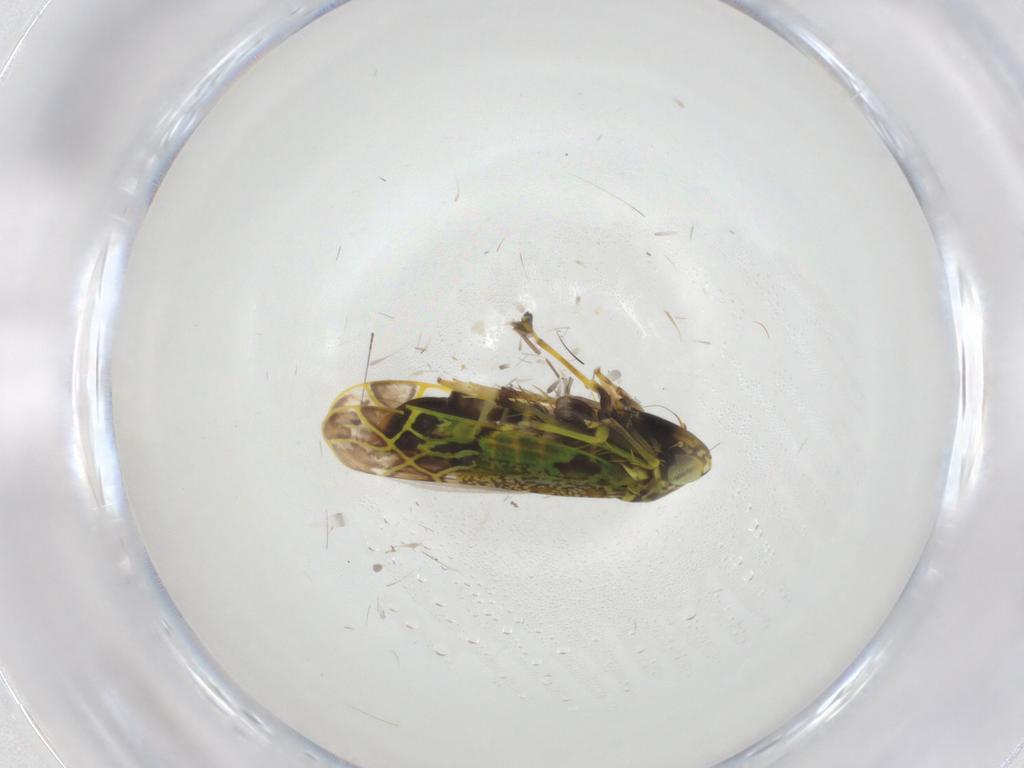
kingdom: Animalia
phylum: Arthropoda
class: Insecta
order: Hemiptera
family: Cicadellidae
